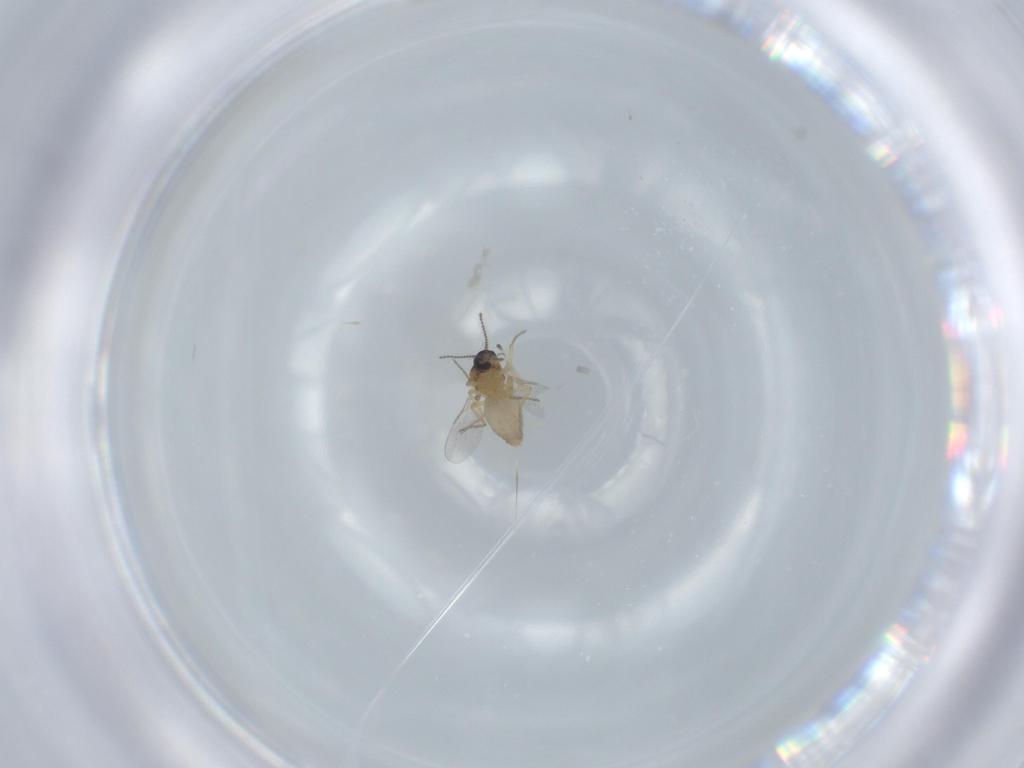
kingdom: Animalia
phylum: Arthropoda
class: Insecta
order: Diptera
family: Ceratopogonidae
